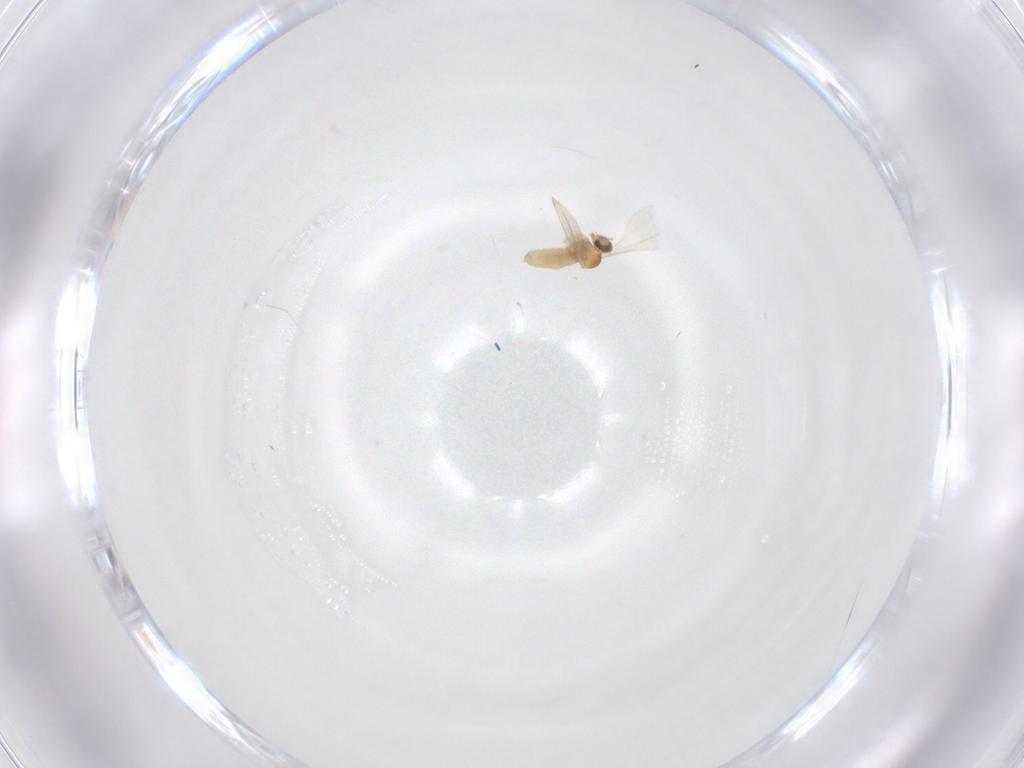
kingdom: Animalia
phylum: Arthropoda
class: Insecta
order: Diptera
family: Cecidomyiidae
